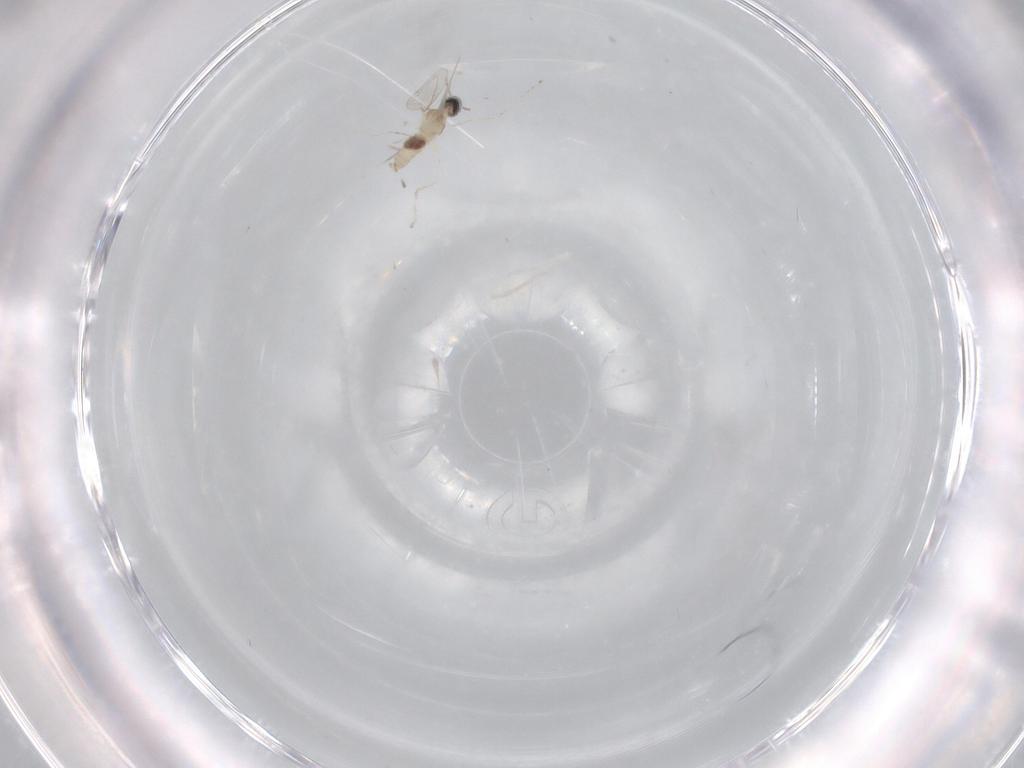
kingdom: Animalia
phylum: Arthropoda
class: Insecta
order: Diptera
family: Cecidomyiidae
